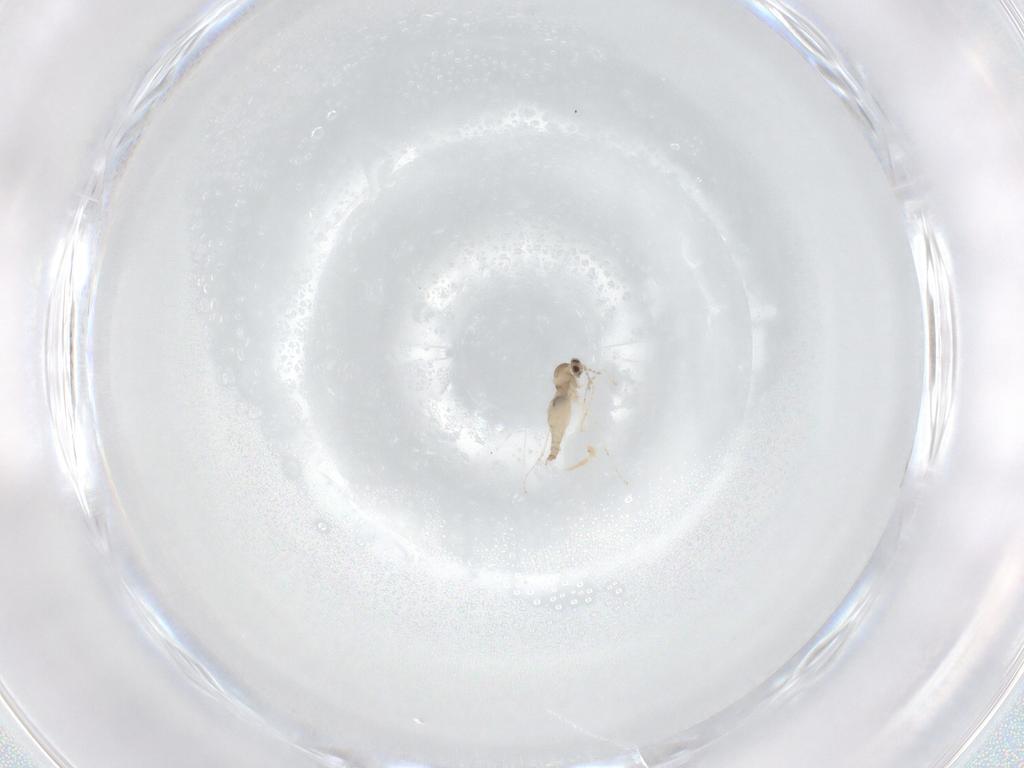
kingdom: Animalia
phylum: Arthropoda
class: Insecta
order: Diptera
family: Cecidomyiidae
